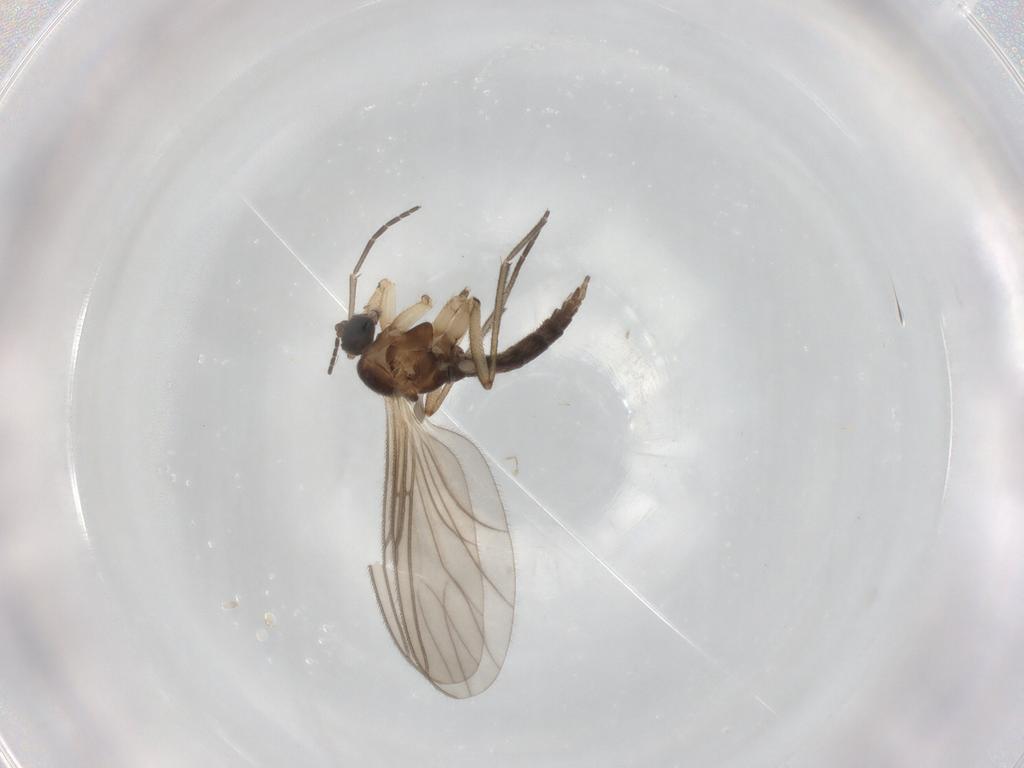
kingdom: Animalia
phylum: Arthropoda
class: Insecta
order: Diptera
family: Sciaridae
